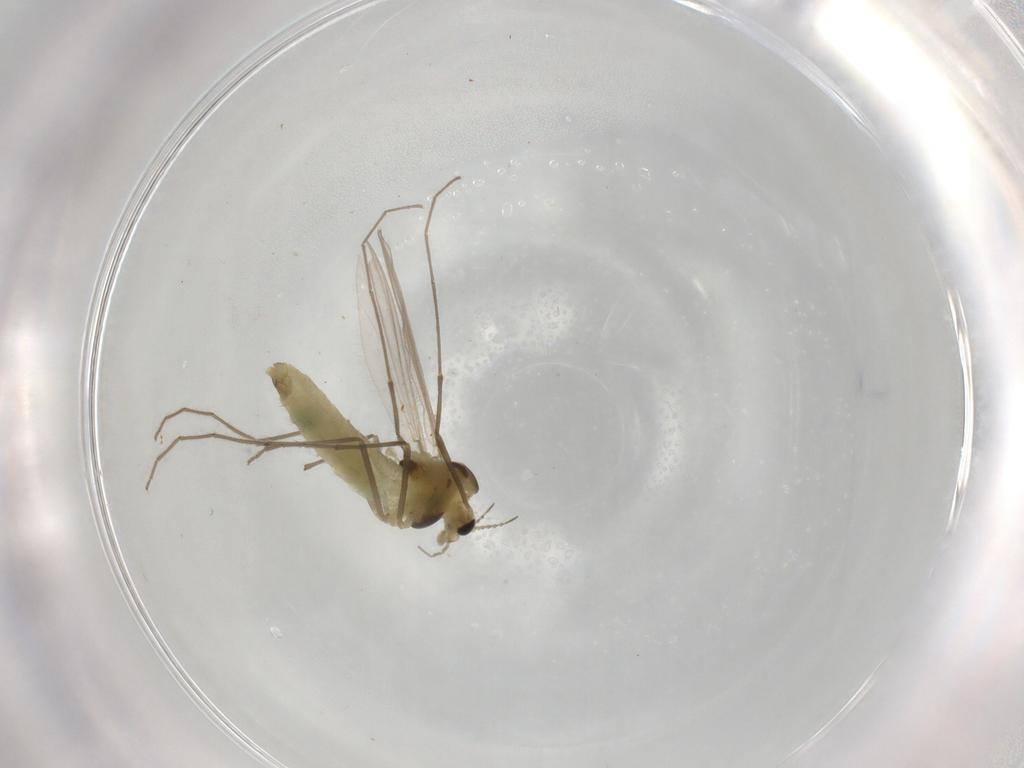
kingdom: Animalia
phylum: Arthropoda
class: Insecta
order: Diptera
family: Chironomidae
